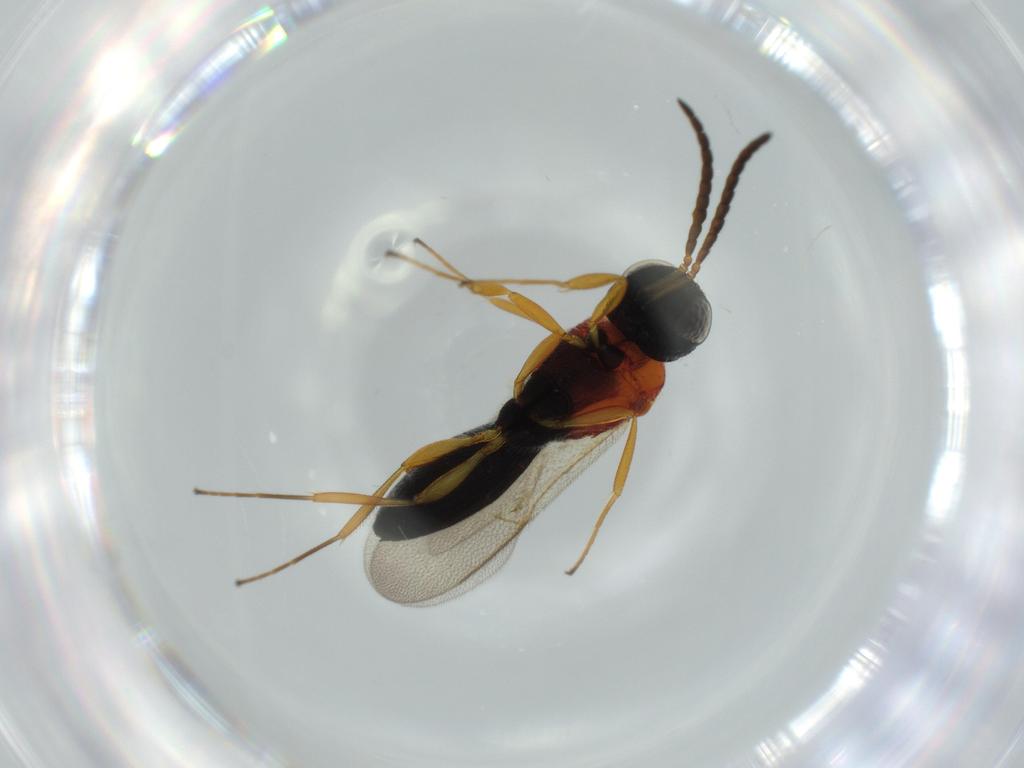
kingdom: Animalia
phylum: Arthropoda
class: Insecta
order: Hymenoptera
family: Scelionidae
